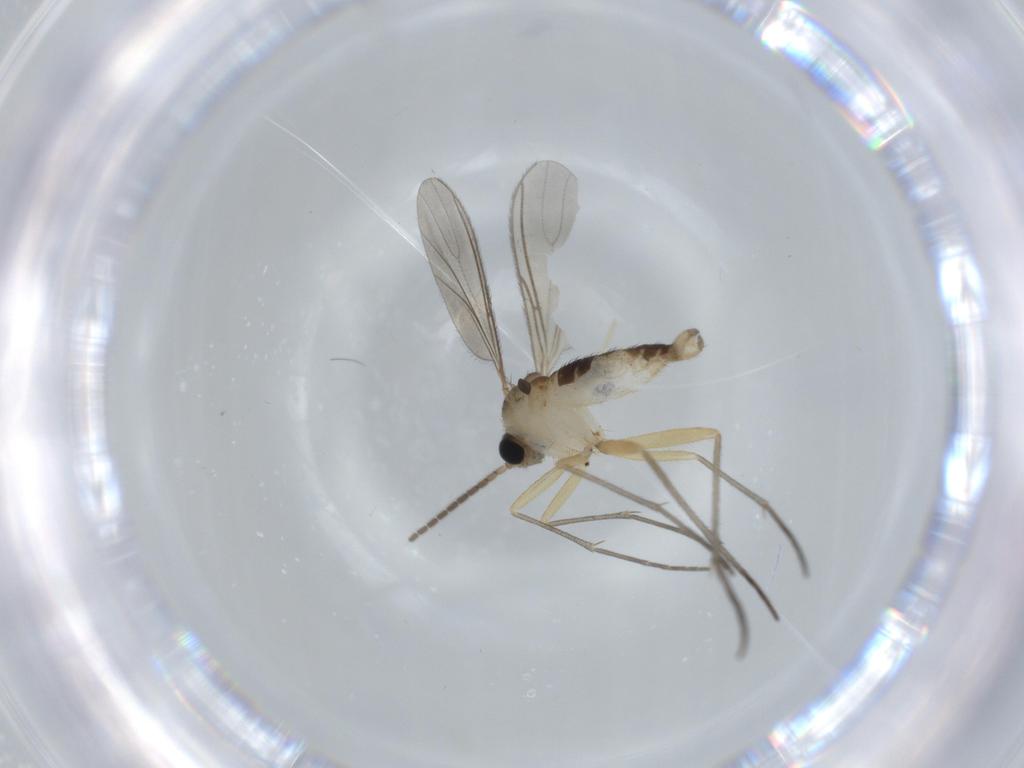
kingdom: Animalia
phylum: Arthropoda
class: Insecta
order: Diptera
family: Sciaridae
